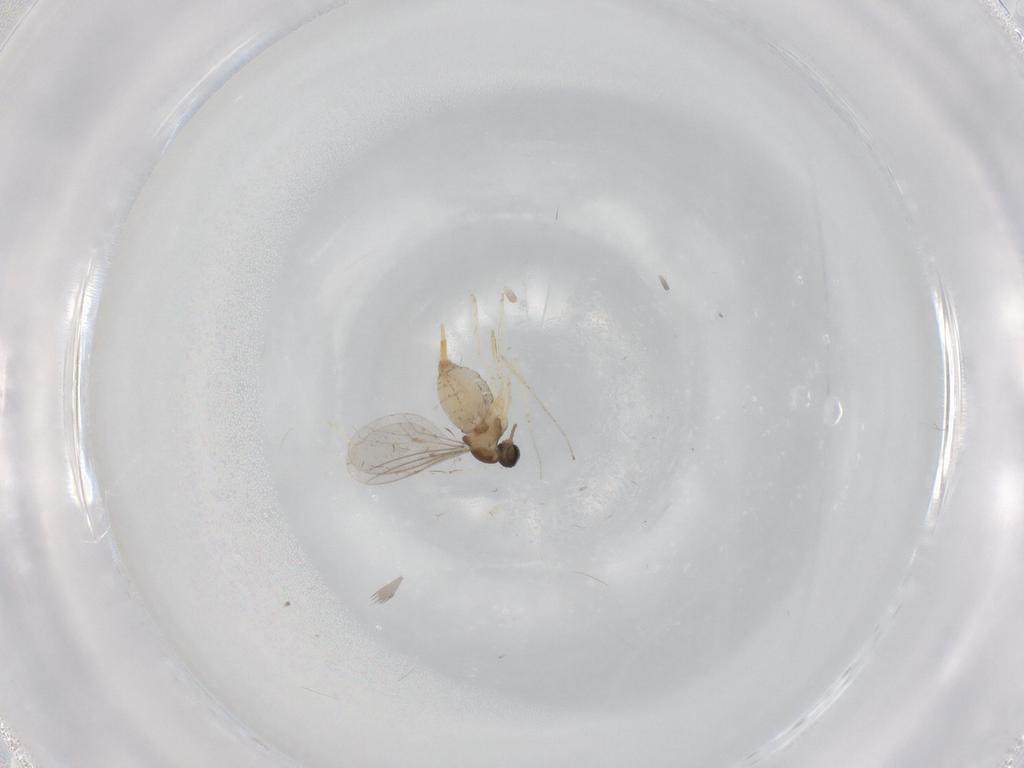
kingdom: Animalia
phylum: Arthropoda
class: Insecta
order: Diptera
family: Cecidomyiidae
